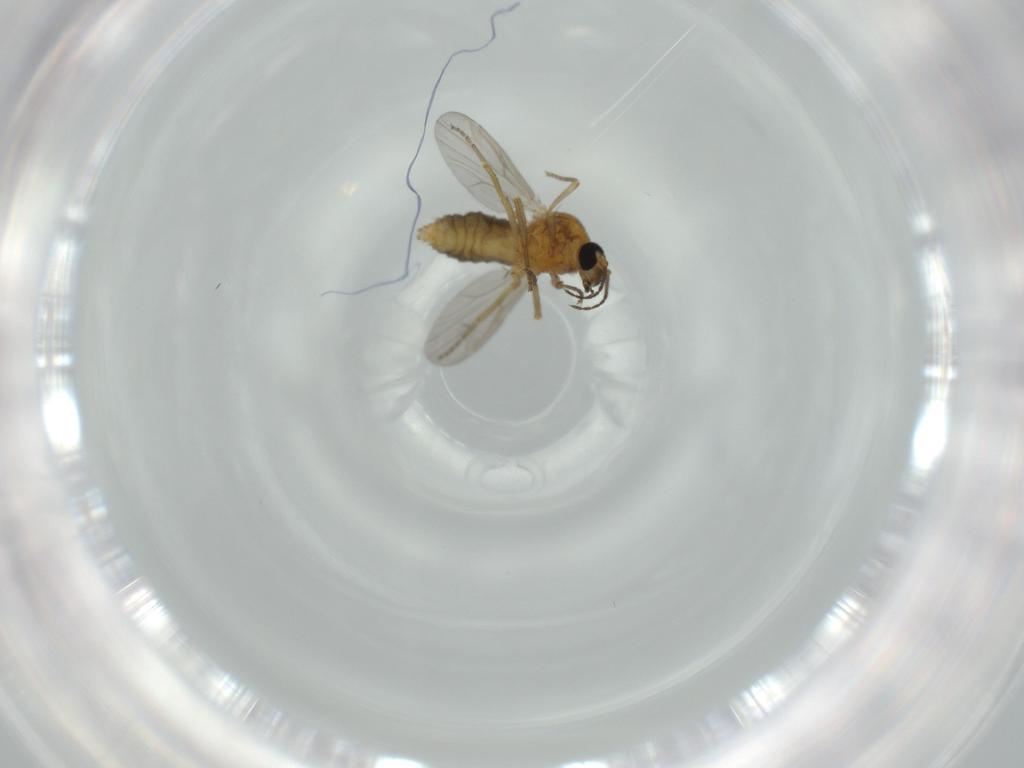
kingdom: Animalia
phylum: Arthropoda
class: Insecta
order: Diptera
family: Ceratopogonidae
